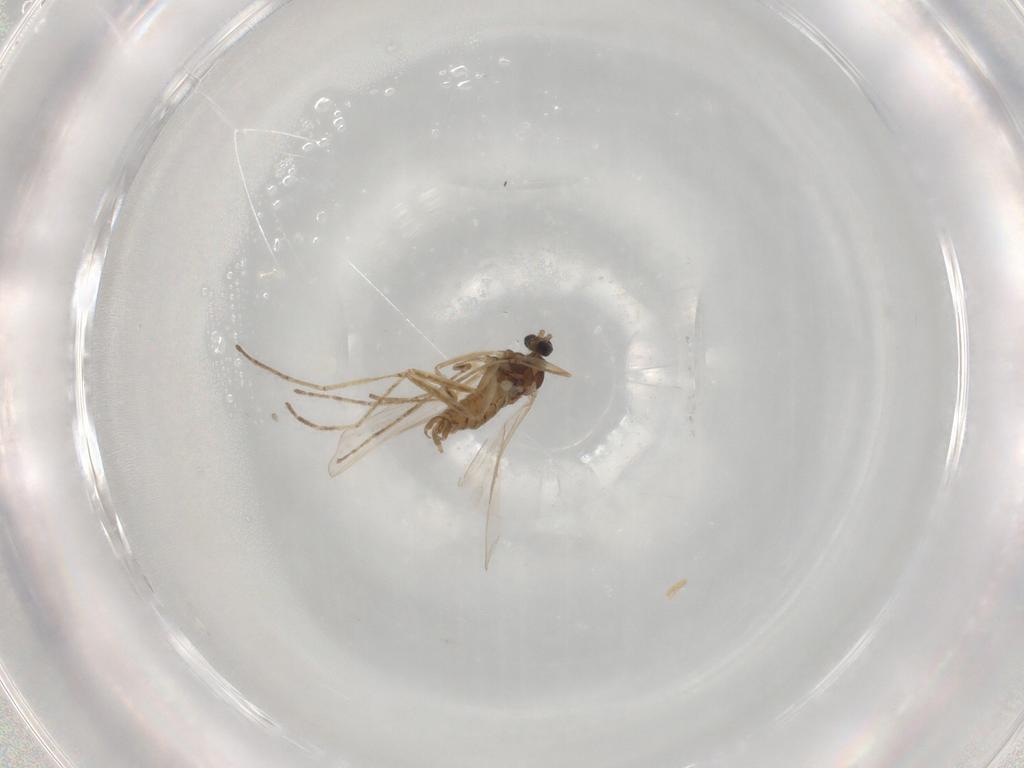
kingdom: Animalia
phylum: Arthropoda
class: Insecta
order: Diptera
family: Cecidomyiidae
